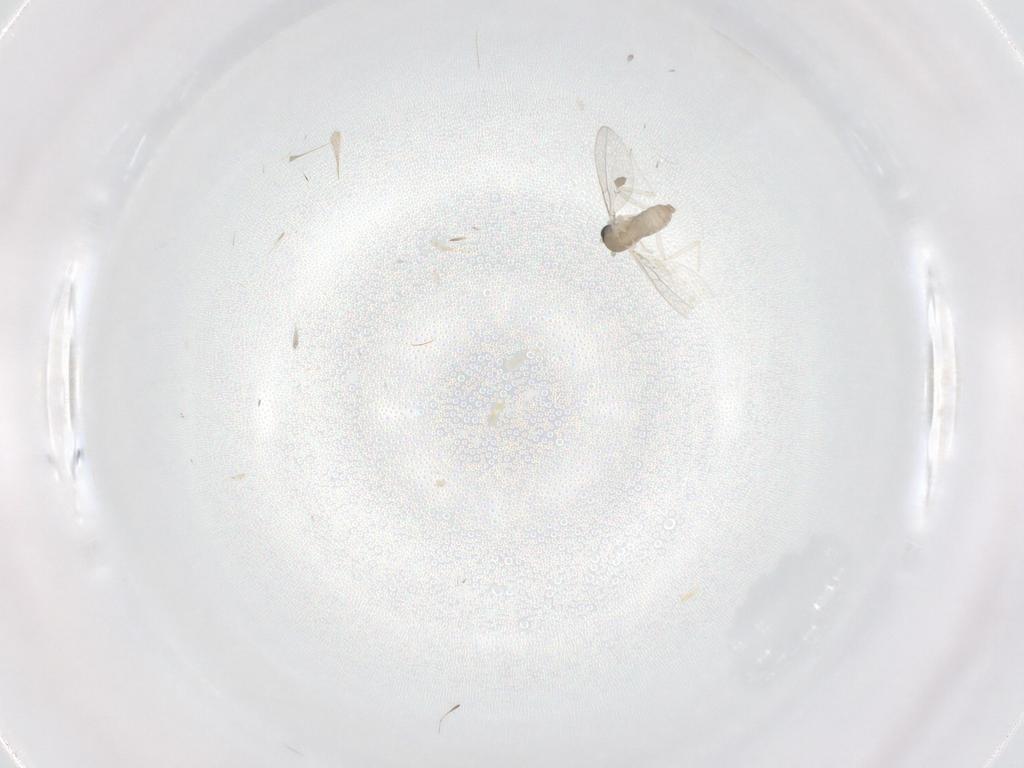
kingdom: Animalia
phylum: Arthropoda
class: Insecta
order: Diptera
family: Cecidomyiidae
